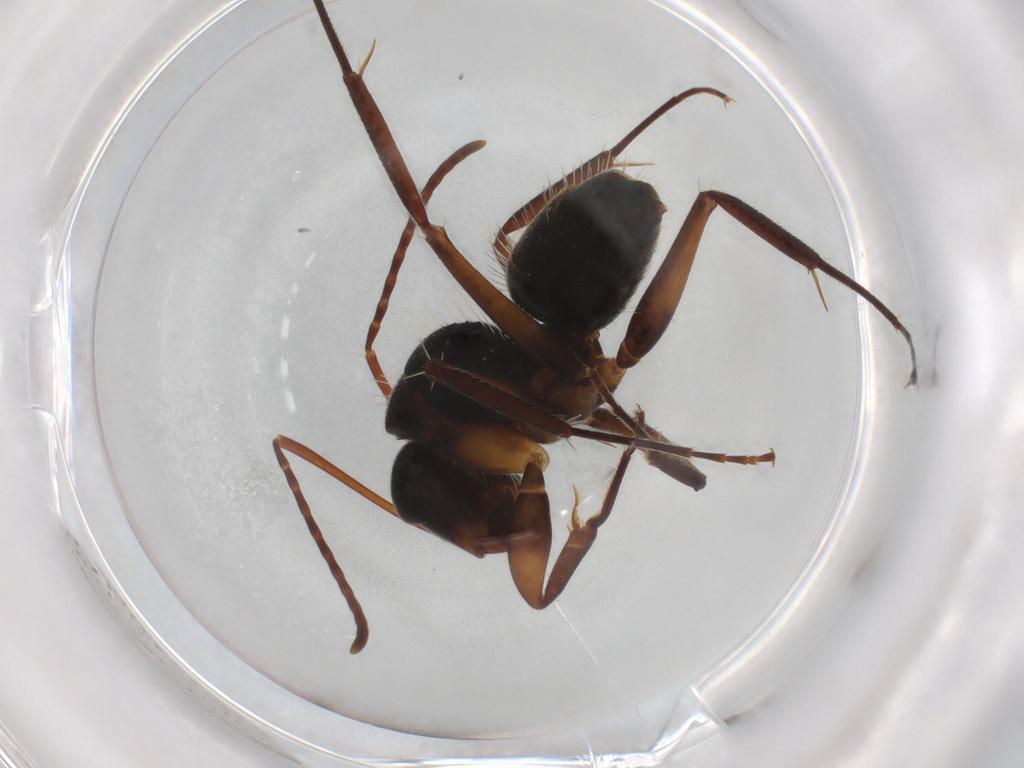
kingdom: Animalia
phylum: Arthropoda
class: Insecta
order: Hymenoptera
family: Formicidae
